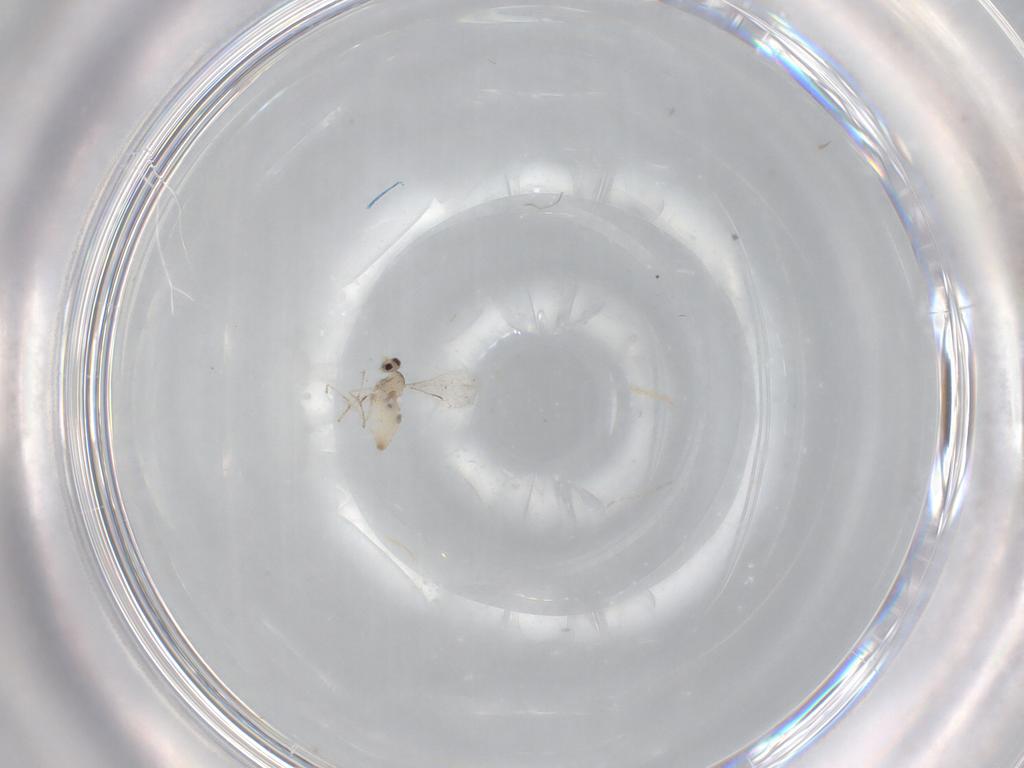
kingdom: Animalia
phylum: Arthropoda
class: Insecta
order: Diptera
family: Cecidomyiidae
